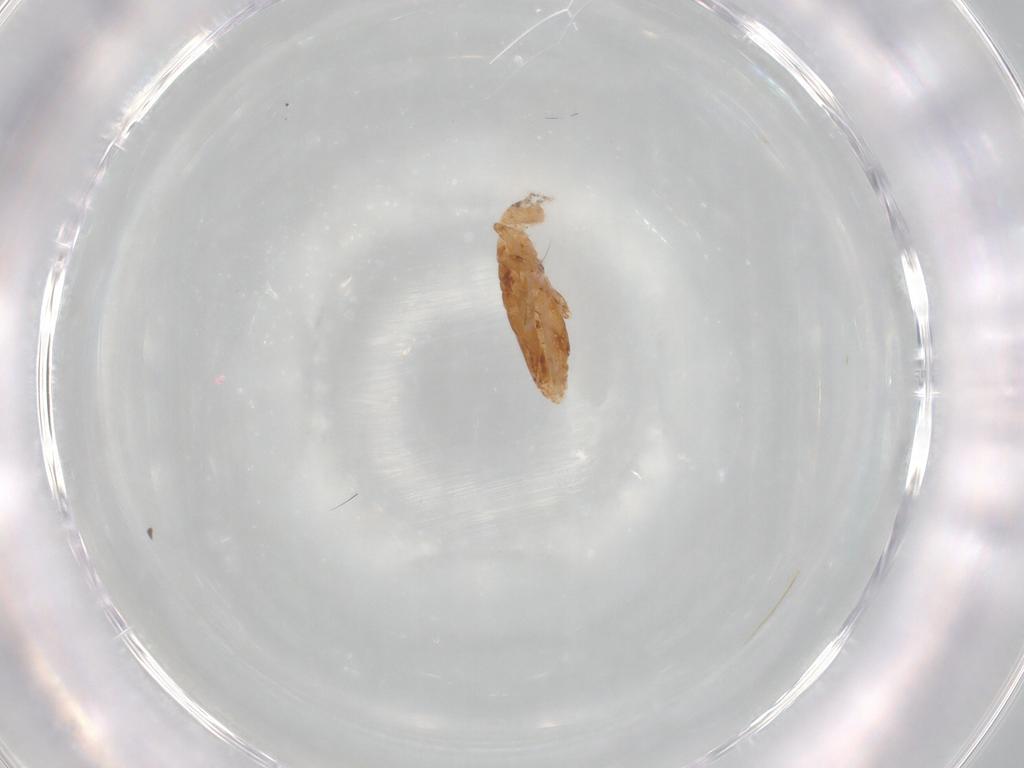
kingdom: Animalia
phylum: Arthropoda
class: Collembola
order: Entomobryomorpha
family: Entomobryidae
